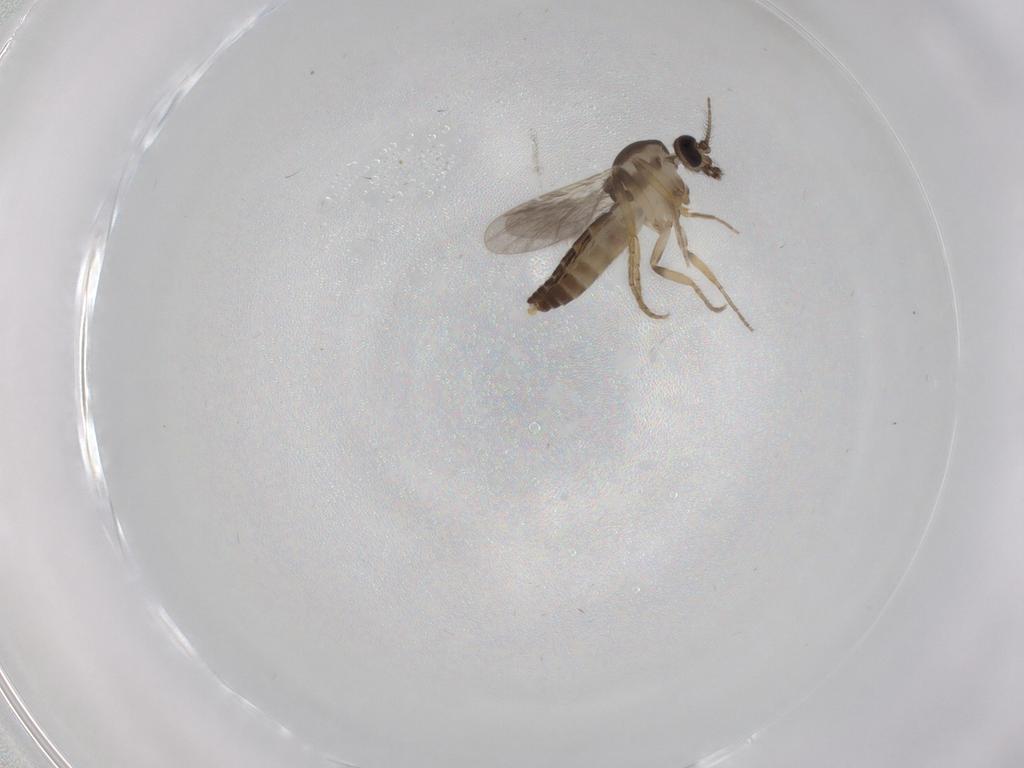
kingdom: Animalia
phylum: Arthropoda
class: Insecta
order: Diptera
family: Ceratopogonidae
